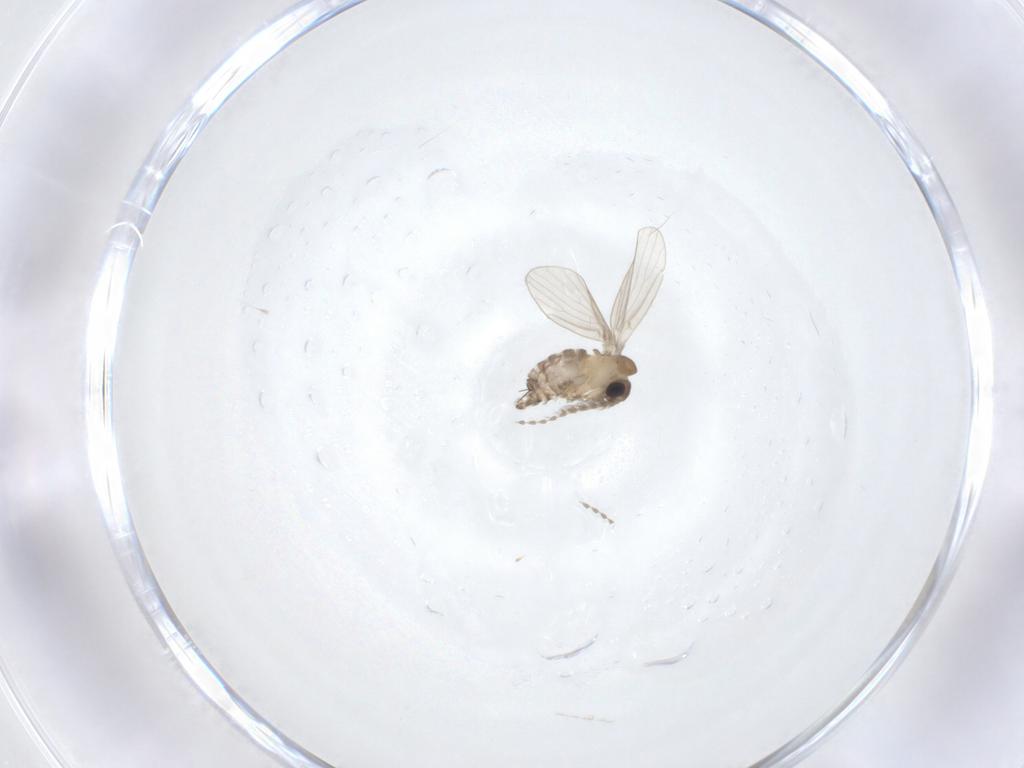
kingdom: Animalia
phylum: Arthropoda
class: Insecta
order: Diptera
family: Psychodidae
